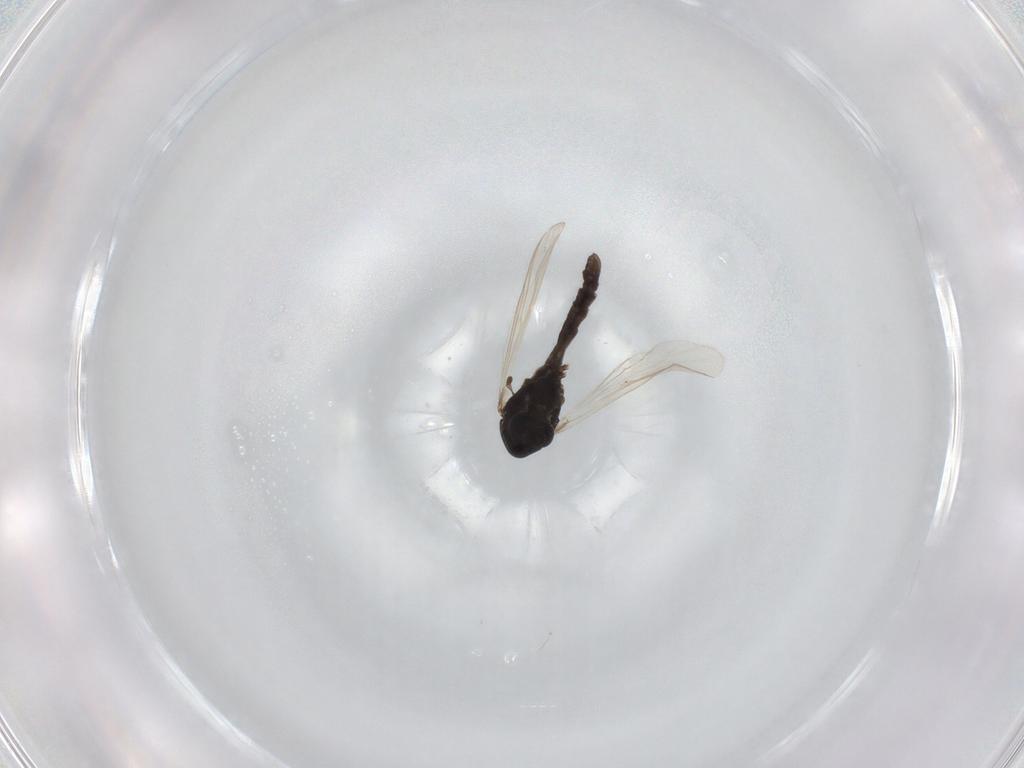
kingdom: Animalia
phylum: Arthropoda
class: Insecta
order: Diptera
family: Chironomidae
